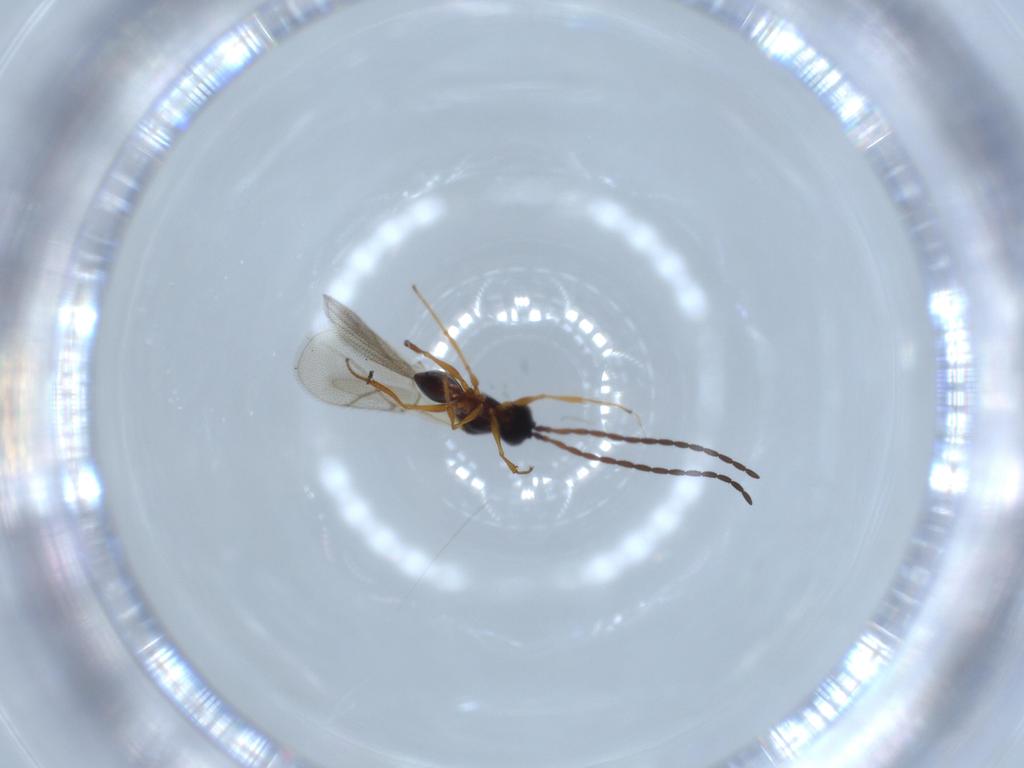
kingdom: Animalia
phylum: Arthropoda
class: Insecta
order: Hymenoptera
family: Figitidae
